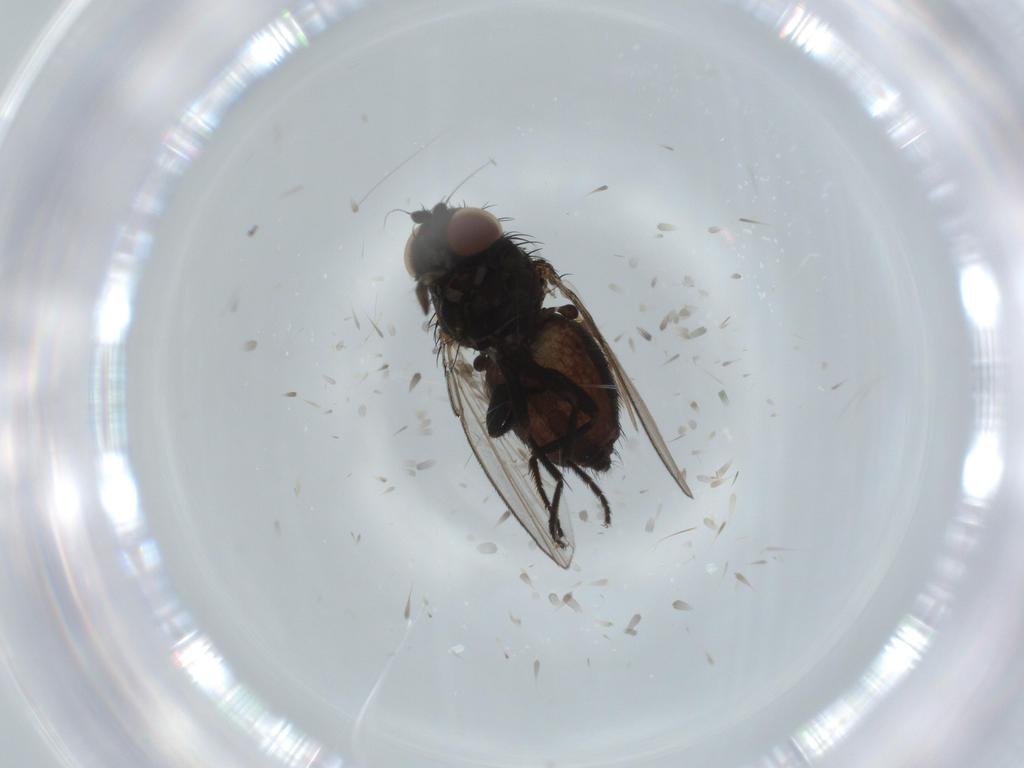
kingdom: Animalia
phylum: Arthropoda
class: Insecta
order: Diptera
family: Milichiidae
